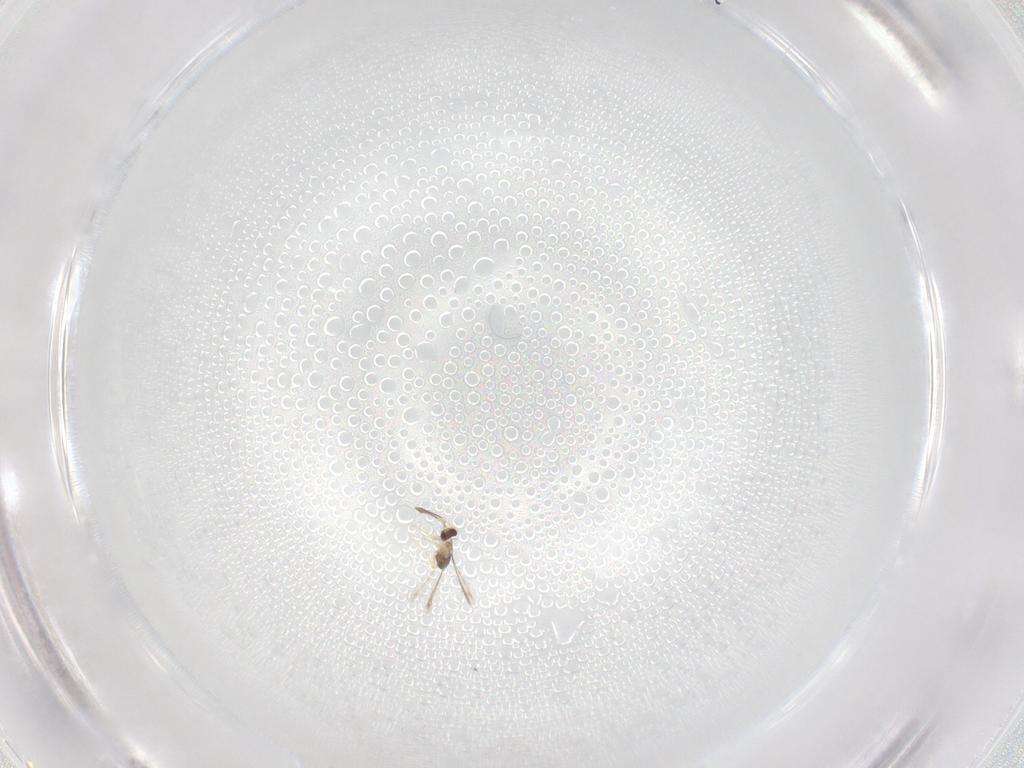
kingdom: Animalia
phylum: Arthropoda
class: Insecta
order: Hymenoptera
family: Mymaridae
